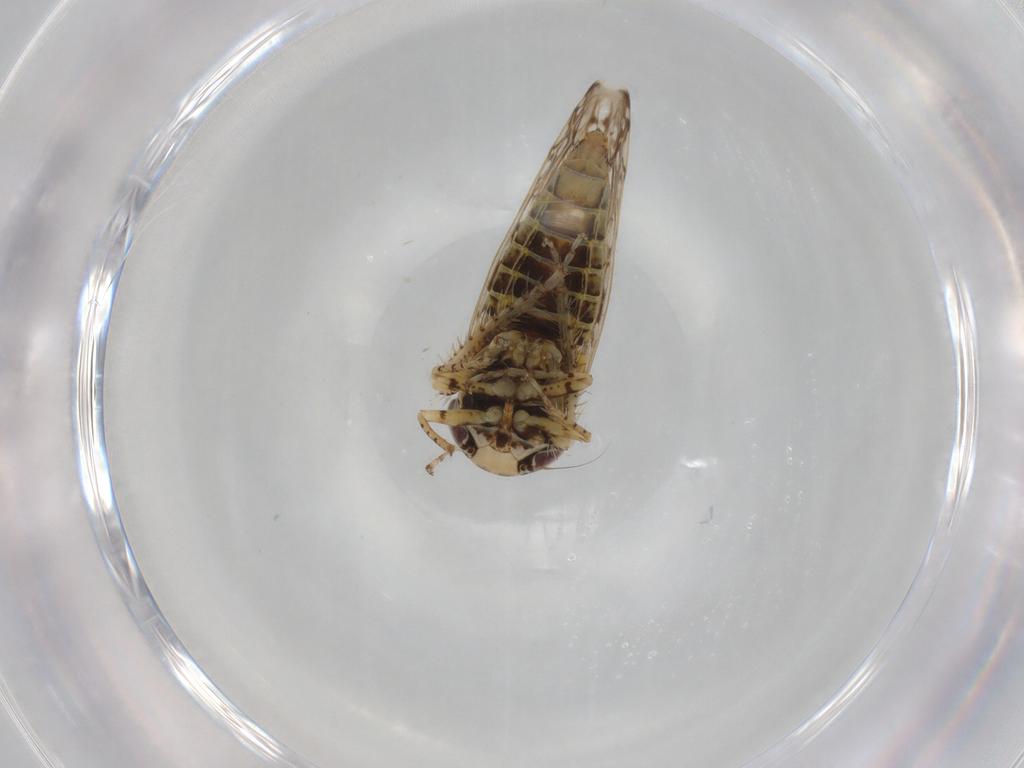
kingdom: Animalia
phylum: Arthropoda
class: Insecta
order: Hemiptera
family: Cicadellidae
